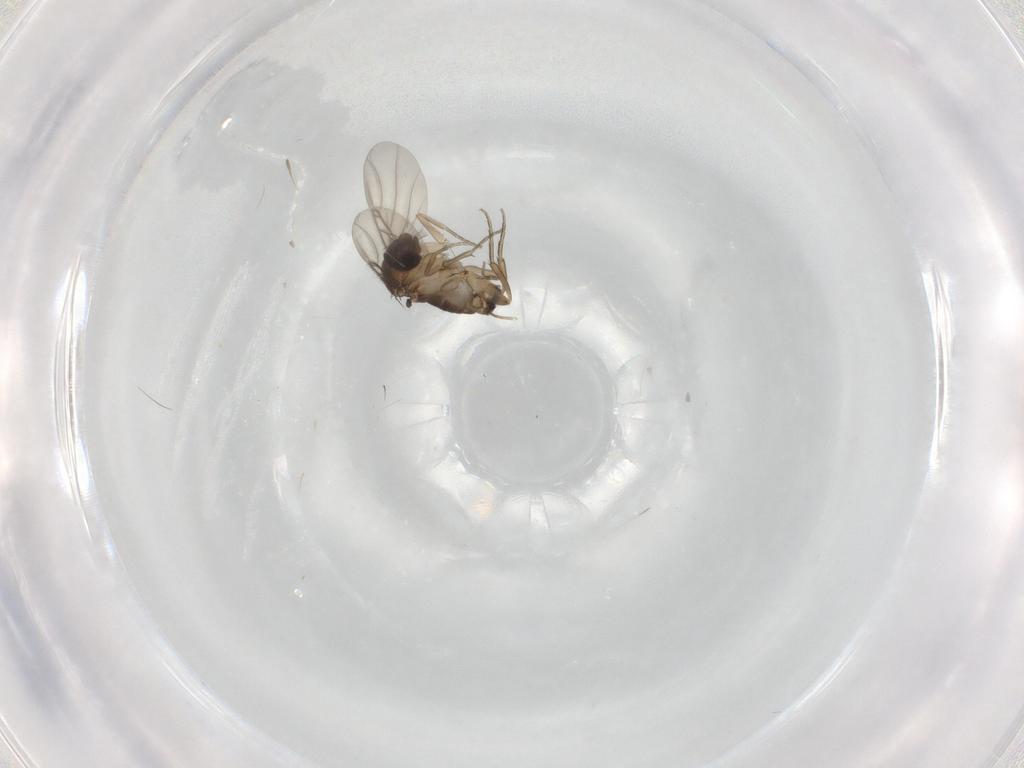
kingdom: Animalia
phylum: Arthropoda
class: Insecta
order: Diptera
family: Phoridae
